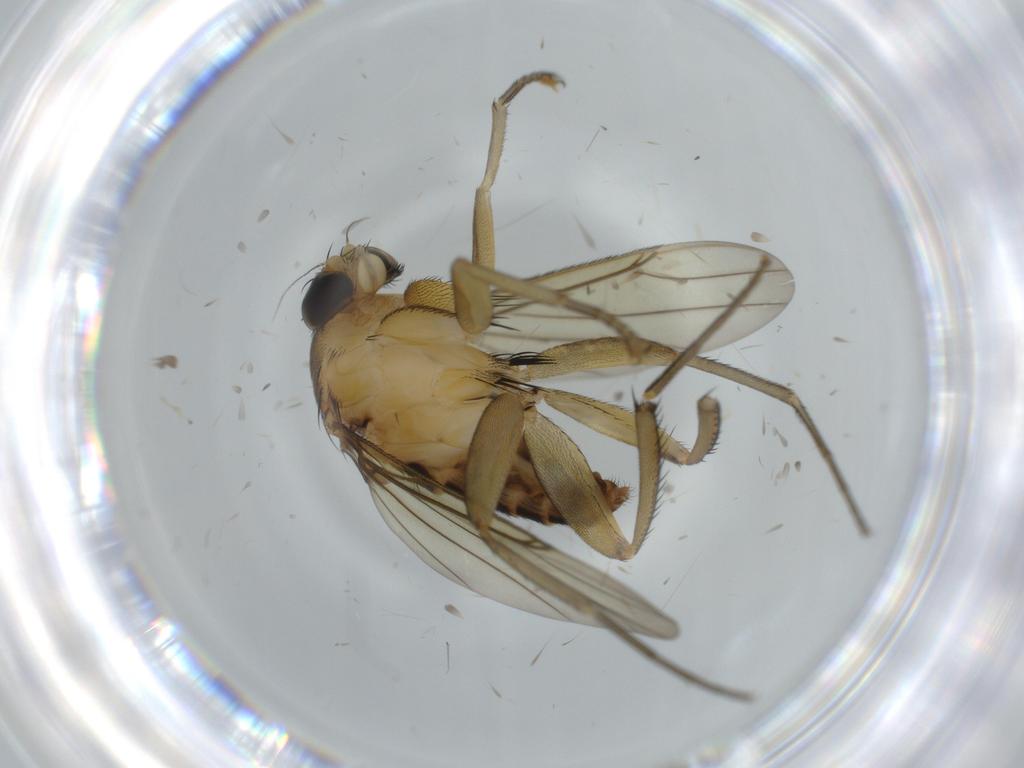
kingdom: Animalia
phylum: Arthropoda
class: Insecta
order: Diptera
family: Phoridae
